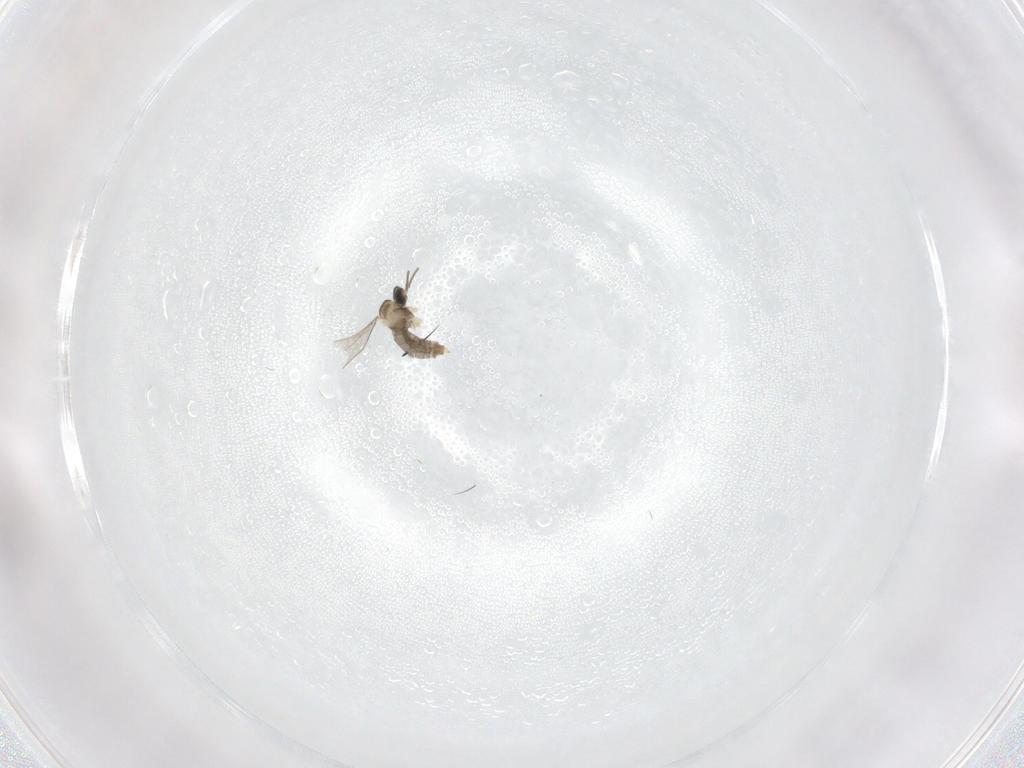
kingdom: Animalia
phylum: Arthropoda
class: Insecta
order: Diptera
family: Cecidomyiidae
